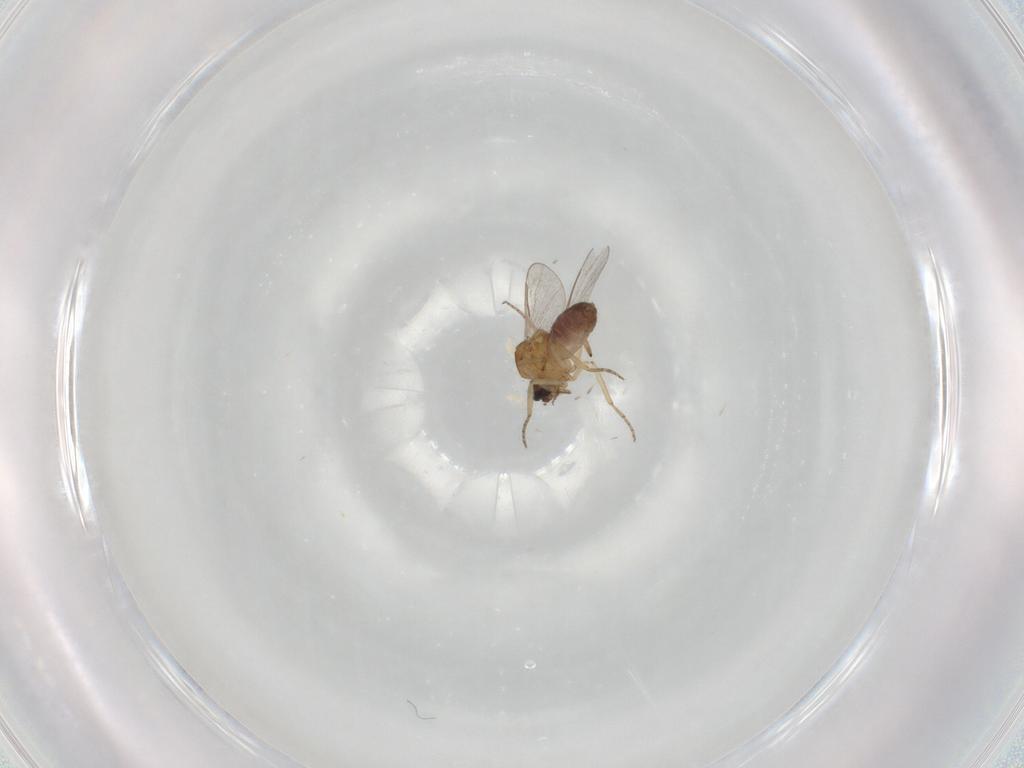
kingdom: Animalia
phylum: Arthropoda
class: Insecta
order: Diptera
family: Ceratopogonidae
